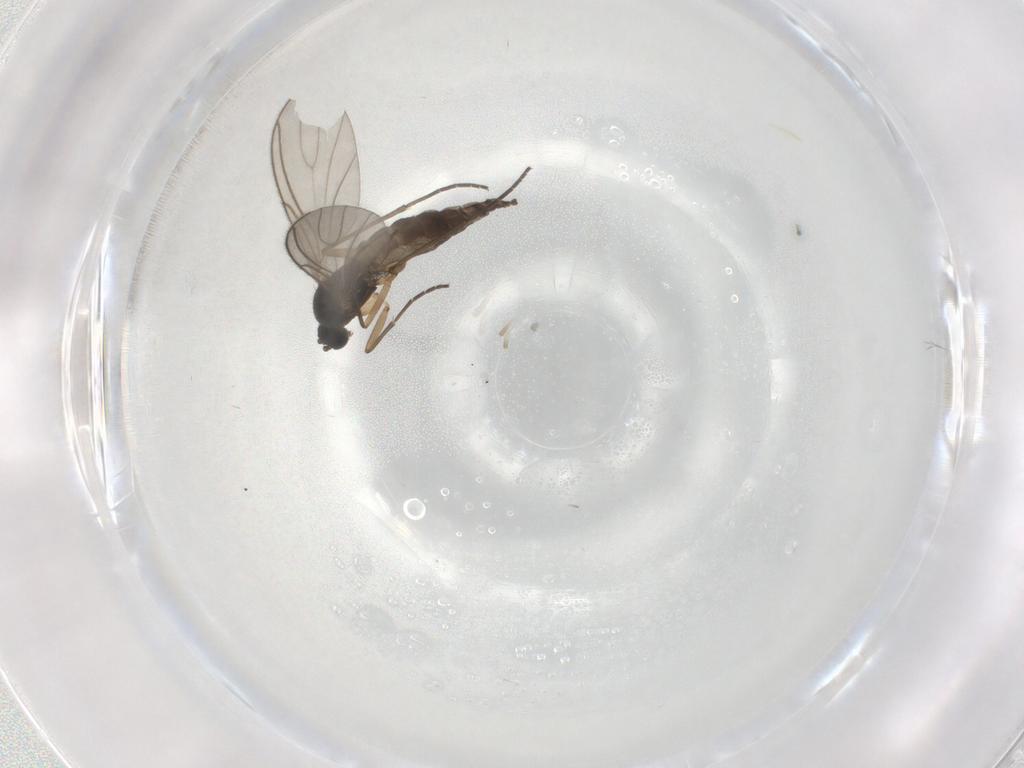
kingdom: Animalia
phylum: Arthropoda
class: Insecta
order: Diptera
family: Sciaridae
